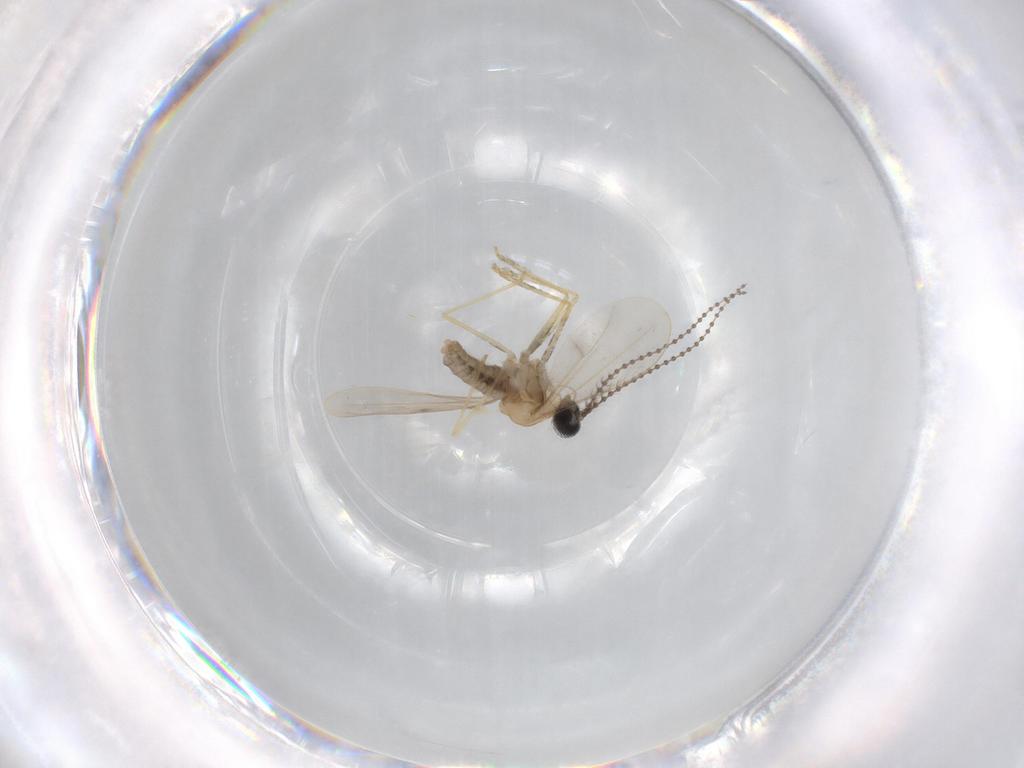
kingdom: Animalia
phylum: Arthropoda
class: Insecta
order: Diptera
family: Cecidomyiidae
